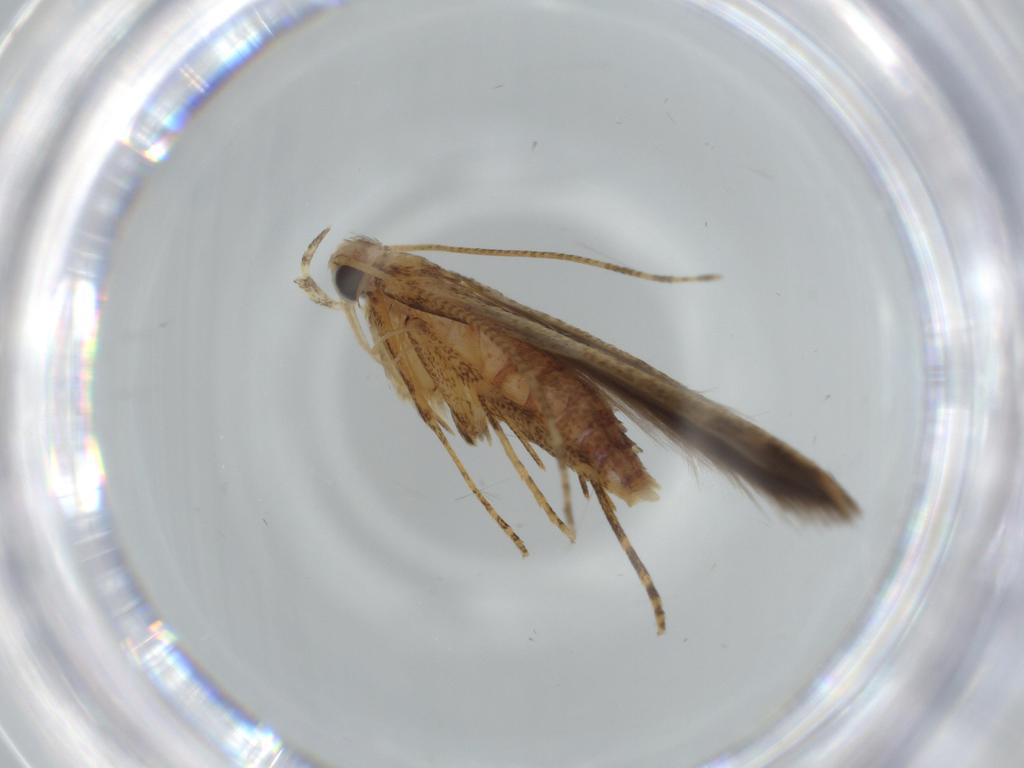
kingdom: Animalia
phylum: Arthropoda
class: Insecta
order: Lepidoptera
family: Batrachedridae
